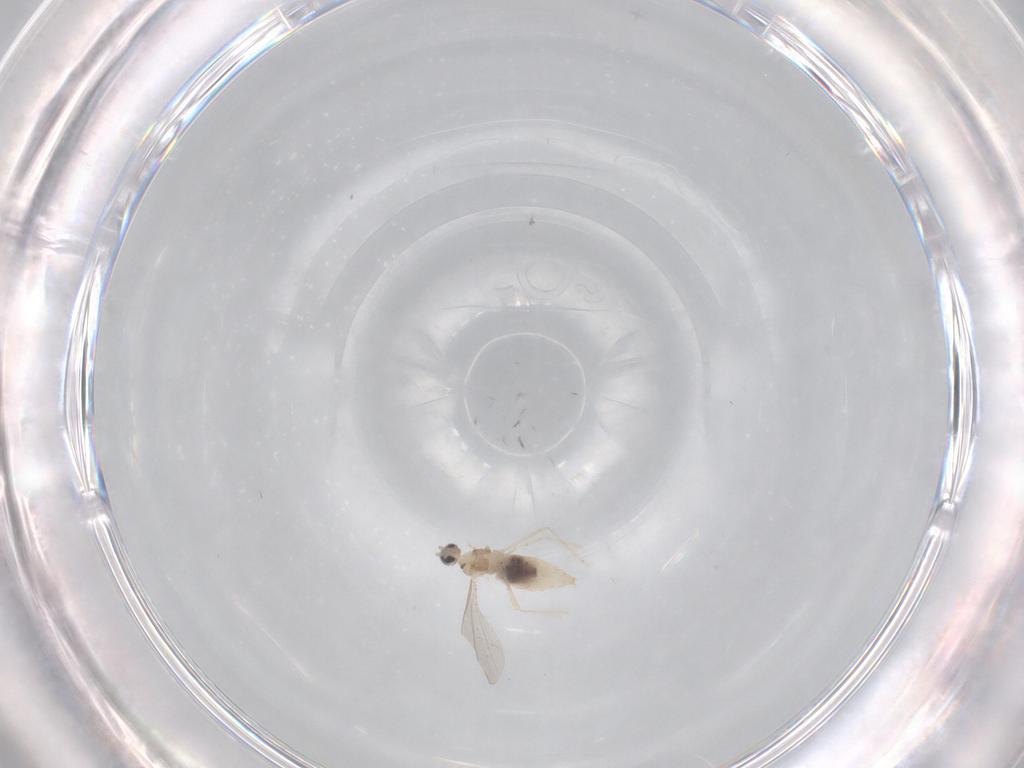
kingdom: Animalia
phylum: Arthropoda
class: Insecta
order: Diptera
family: Cecidomyiidae
